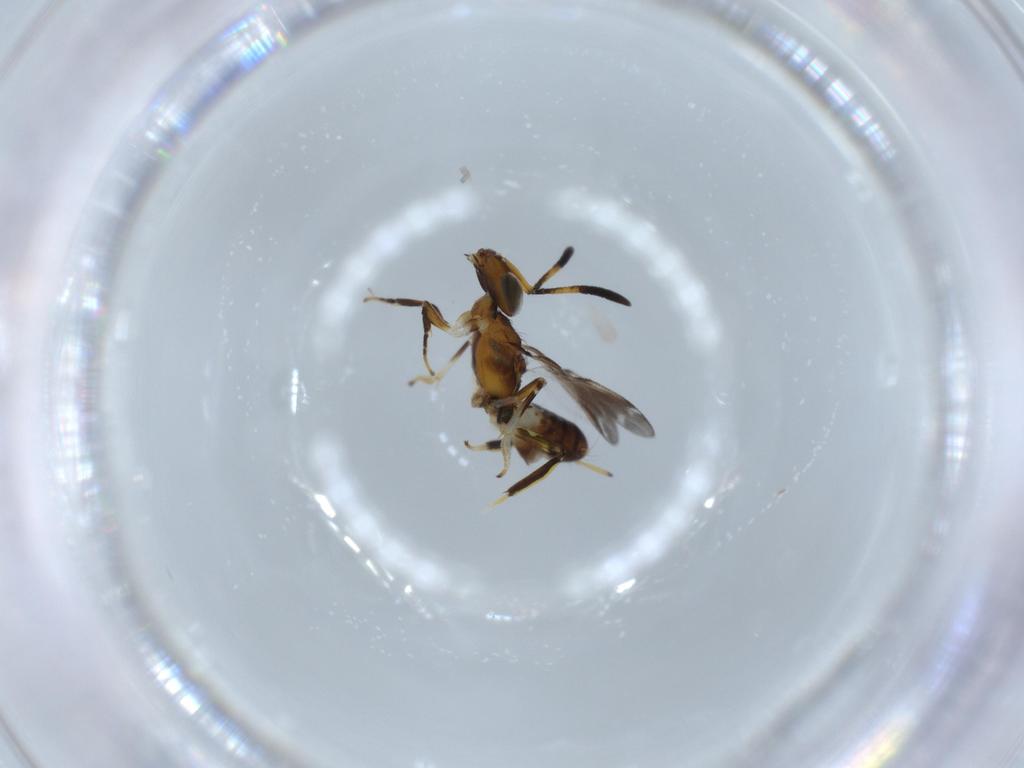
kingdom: Animalia
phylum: Arthropoda
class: Insecta
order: Hymenoptera
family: Eupelmidae
